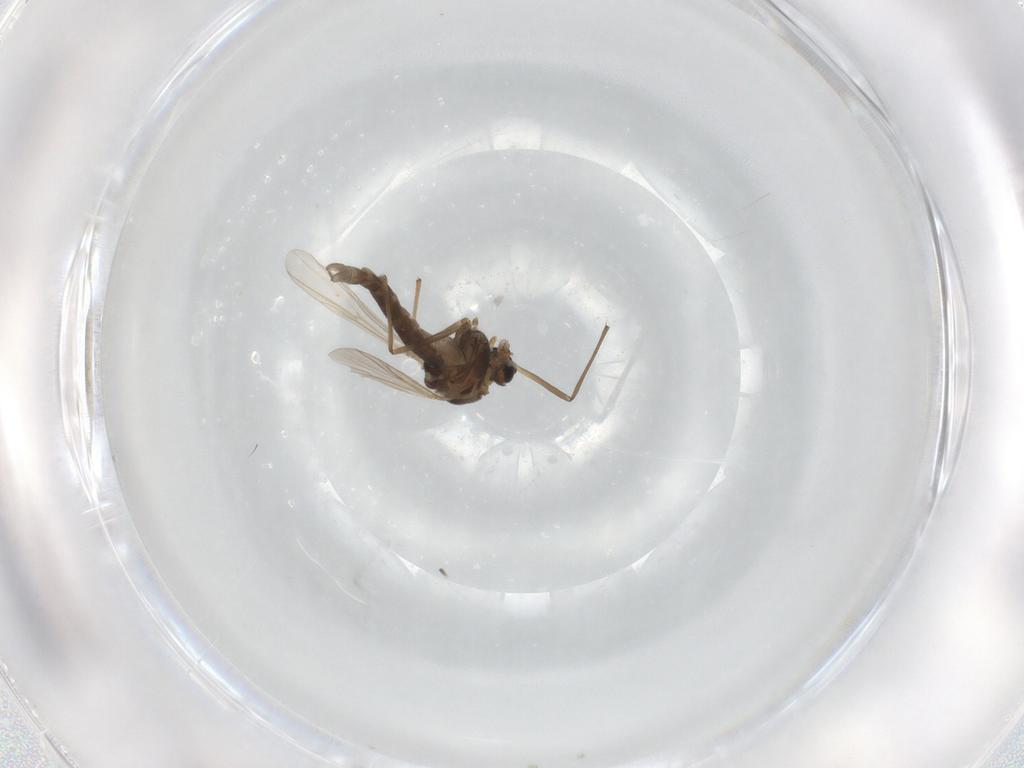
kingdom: Animalia
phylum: Arthropoda
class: Insecta
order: Diptera
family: Chironomidae
